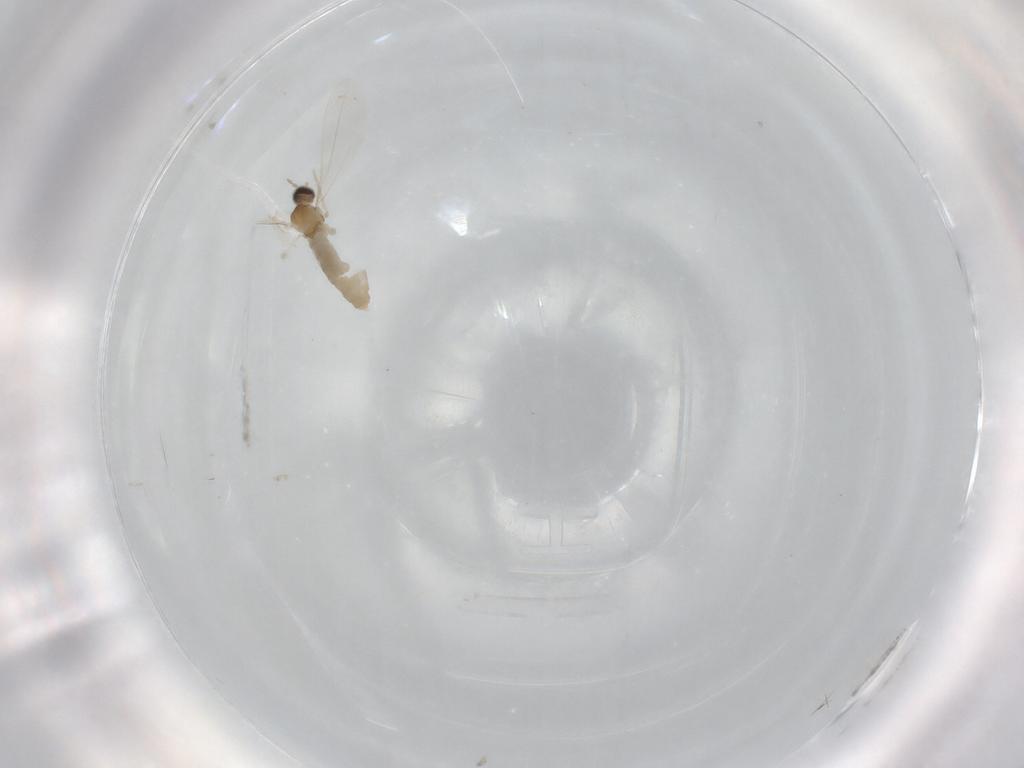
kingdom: Animalia
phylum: Arthropoda
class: Insecta
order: Diptera
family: Cecidomyiidae
